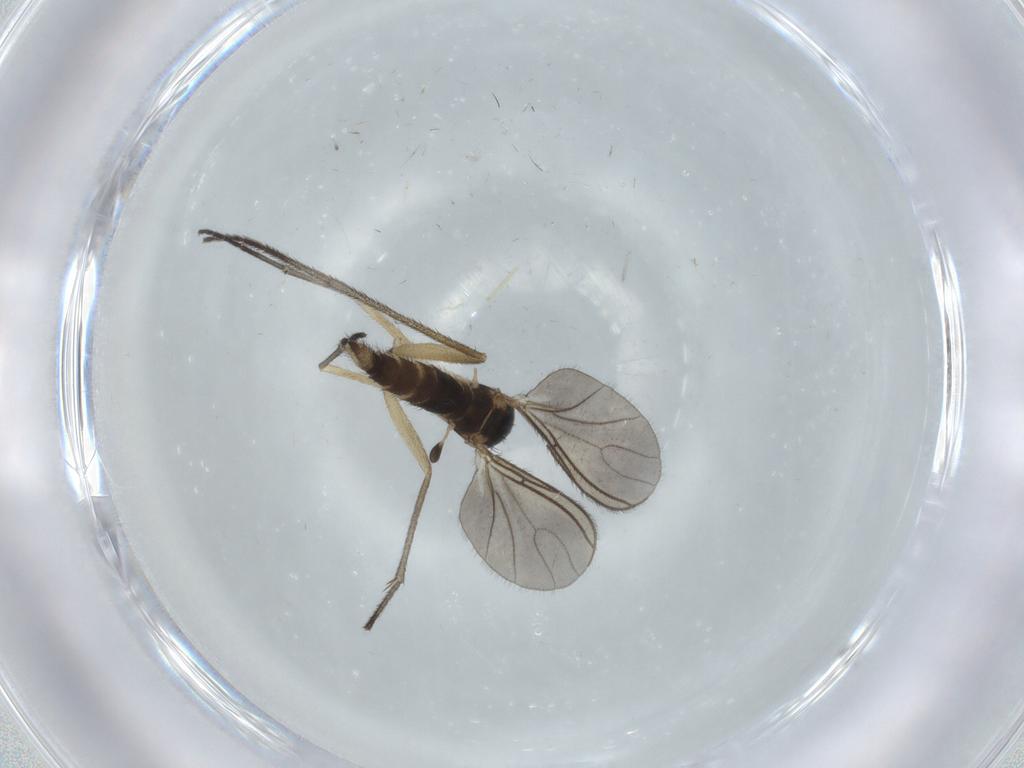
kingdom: Animalia
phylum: Arthropoda
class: Insecta
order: Diptera
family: Sciaridae
